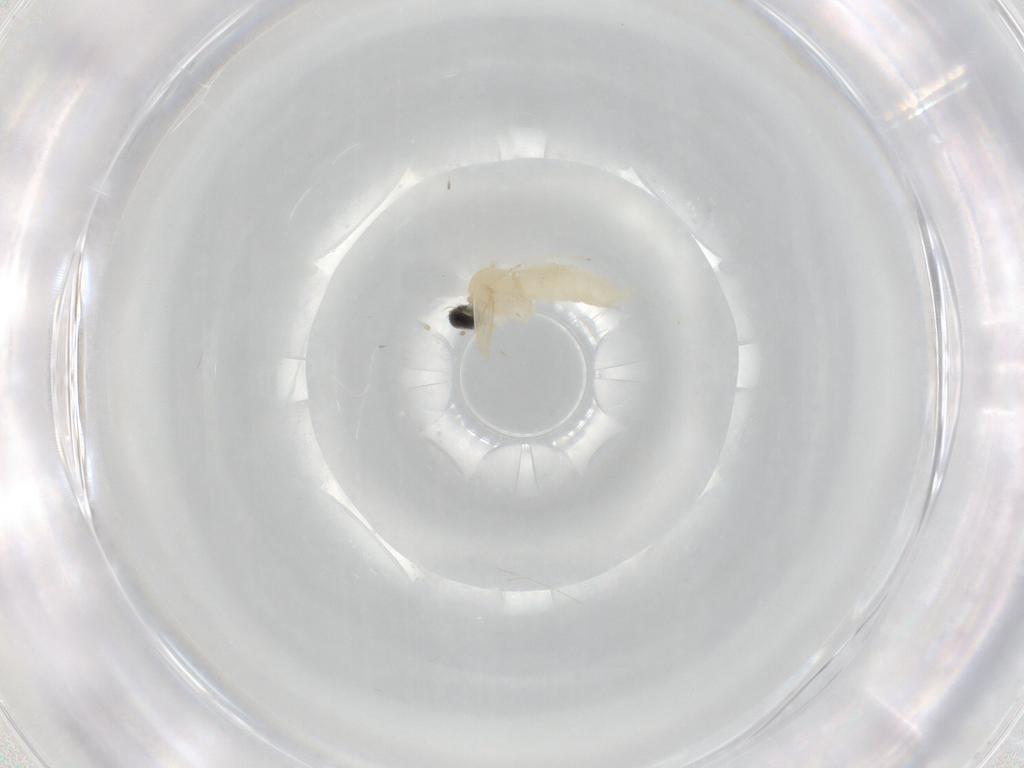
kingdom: Animalia
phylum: Arthropoda
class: Insecta
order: Diptera
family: Cecidomyiidae
